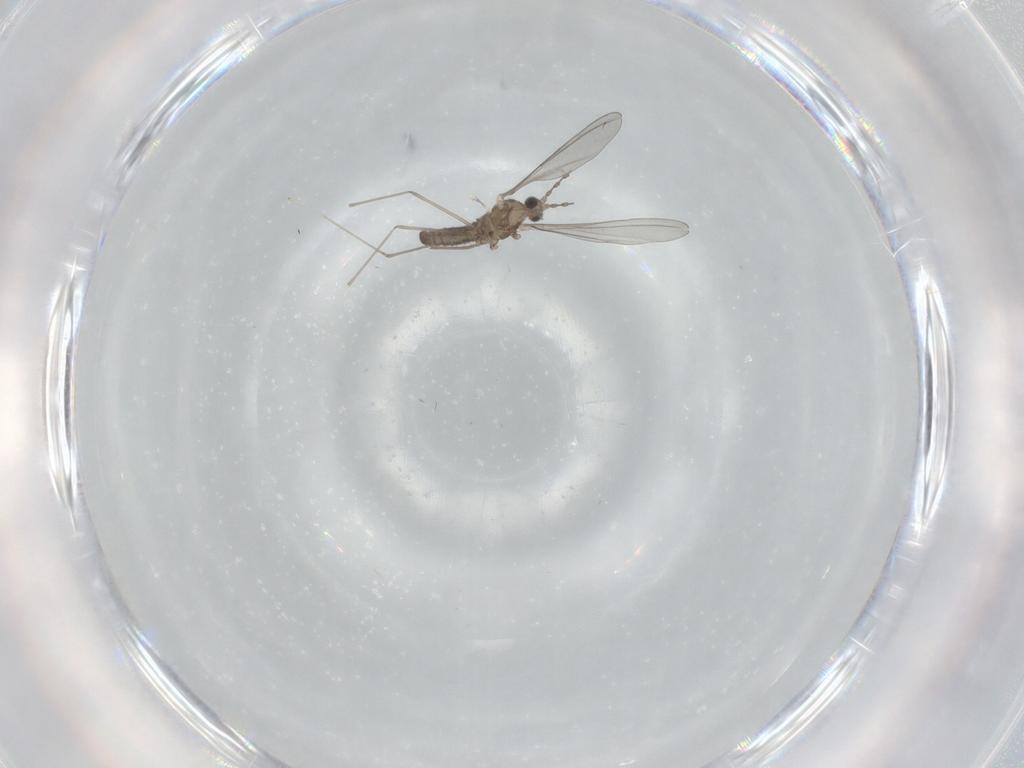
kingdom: Animalia
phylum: Arthropoda
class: Insecta
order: Diptera
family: Cecidomyiidae
